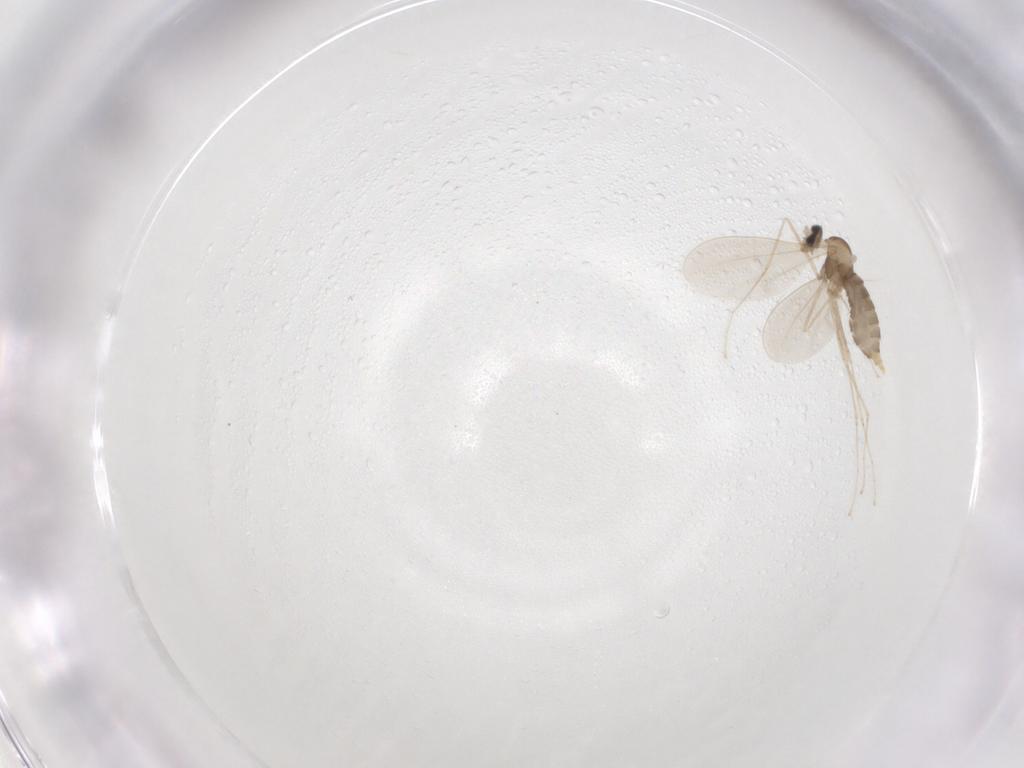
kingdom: Animalia
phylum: Arthropoda
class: Insecta
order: Diptera
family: Cecidomyiidae
